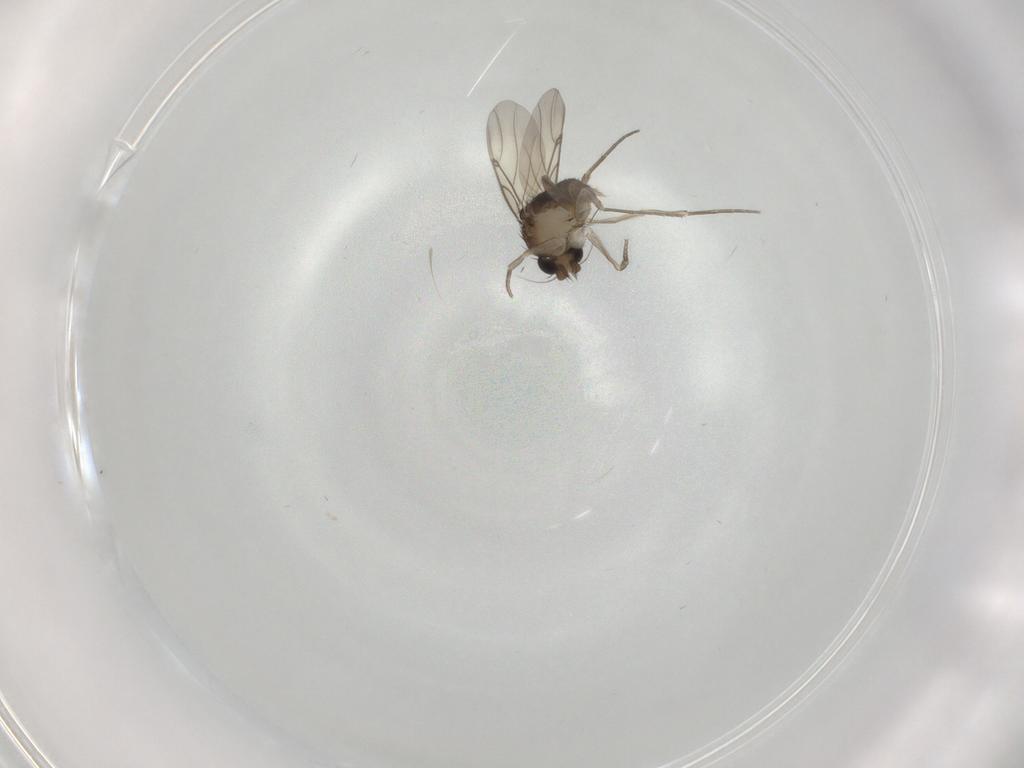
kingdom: Animalia
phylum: Arthropoda
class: Insecta
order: Diptera
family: Phoridae
